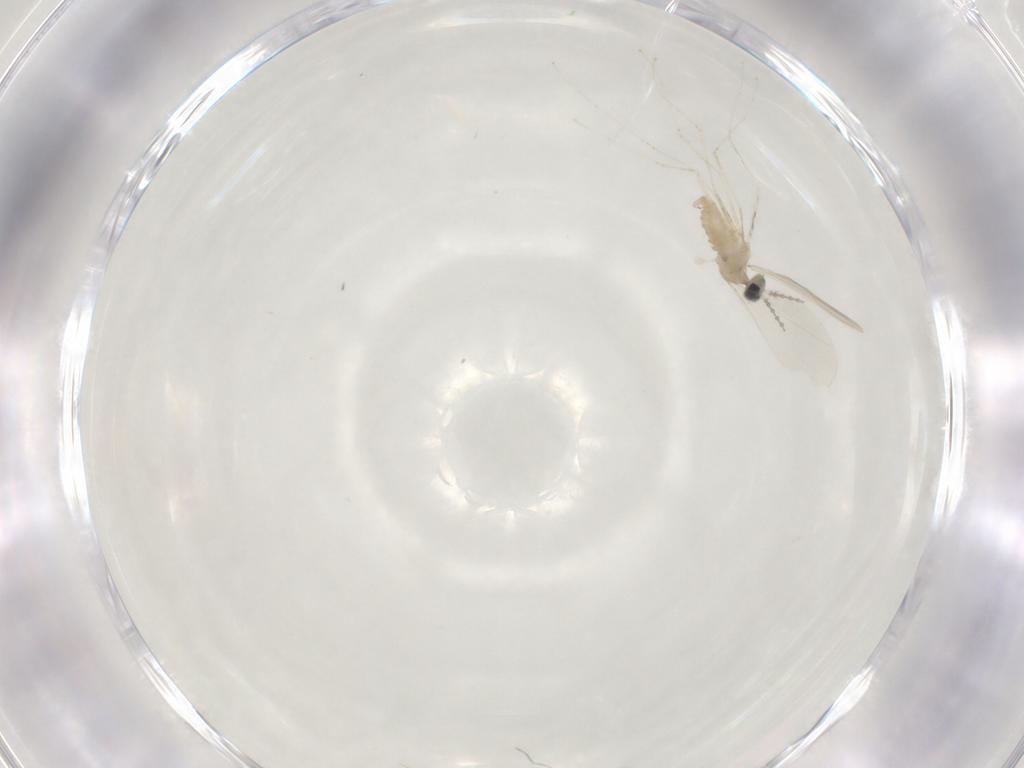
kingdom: Animalia
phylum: Arthropoda
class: Insecta
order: Diptera
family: Cecidomyiidae
